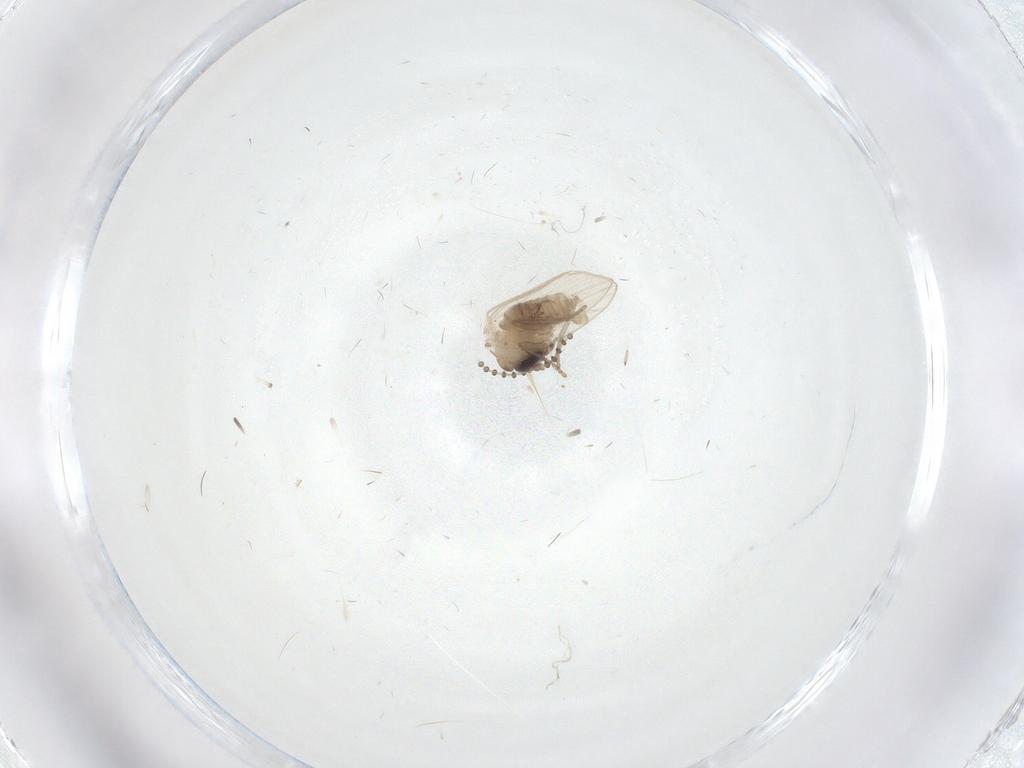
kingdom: Animalia
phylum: Arthropoda
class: Insecta
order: Diptera
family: Psychodidae
